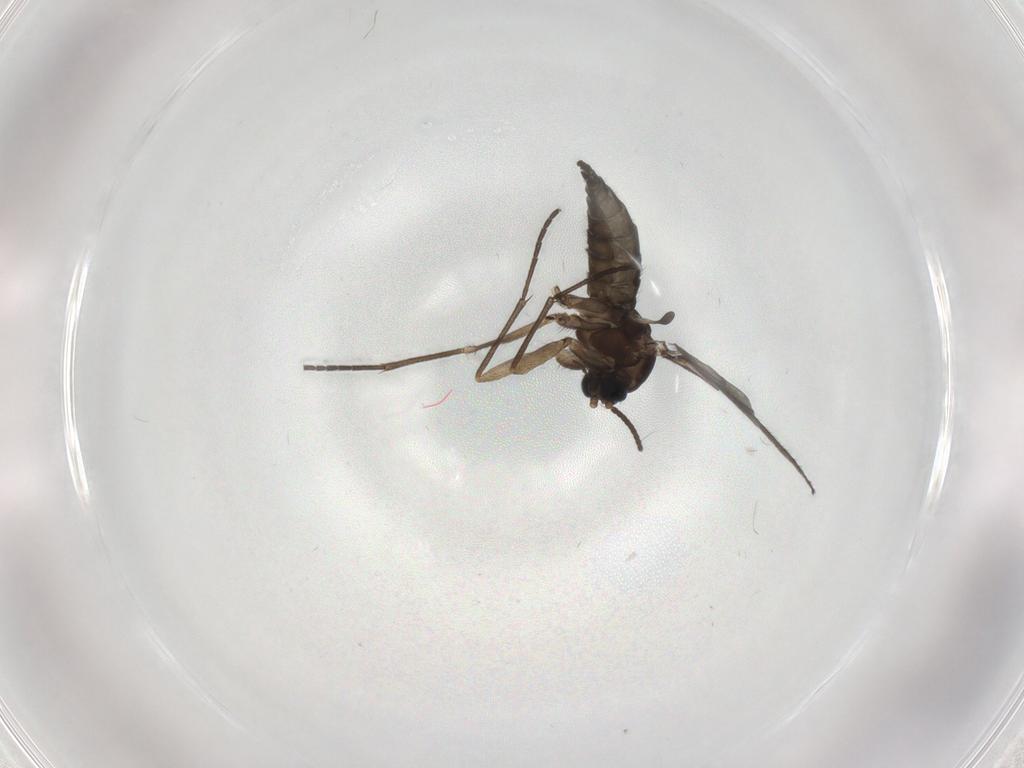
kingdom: Animalia
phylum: Arthropoda
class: Insecta
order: Diptera
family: Sciaridae
